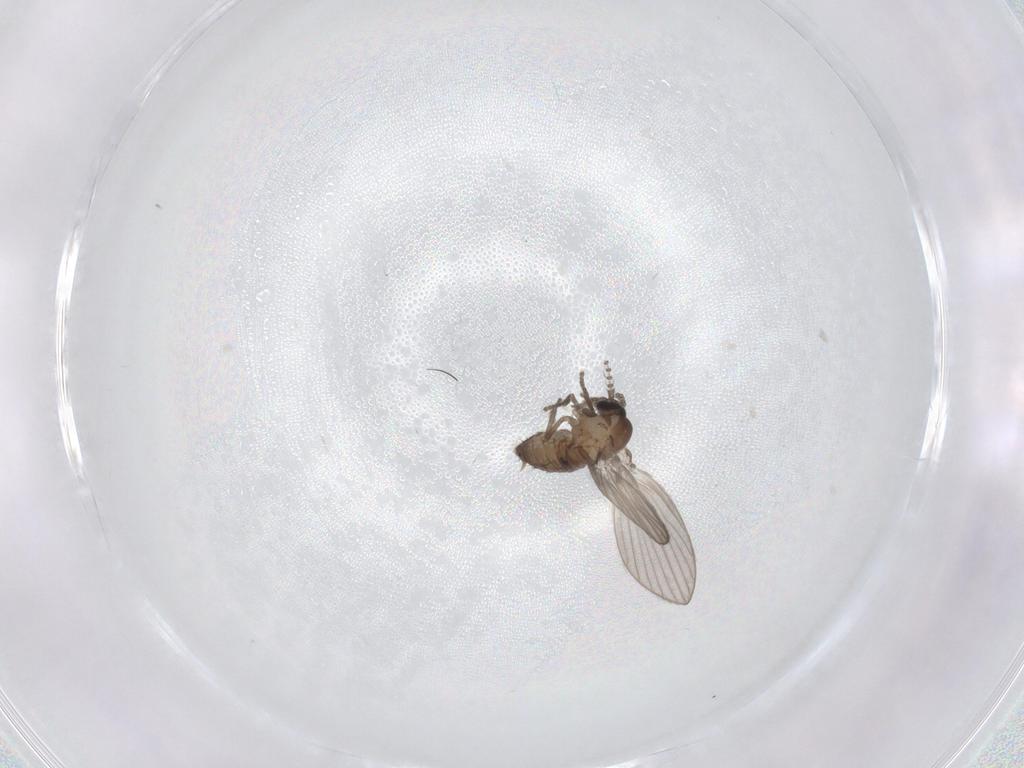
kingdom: Animalia
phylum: Arthropoda
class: Insecta
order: Diptera
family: Psychodidae
